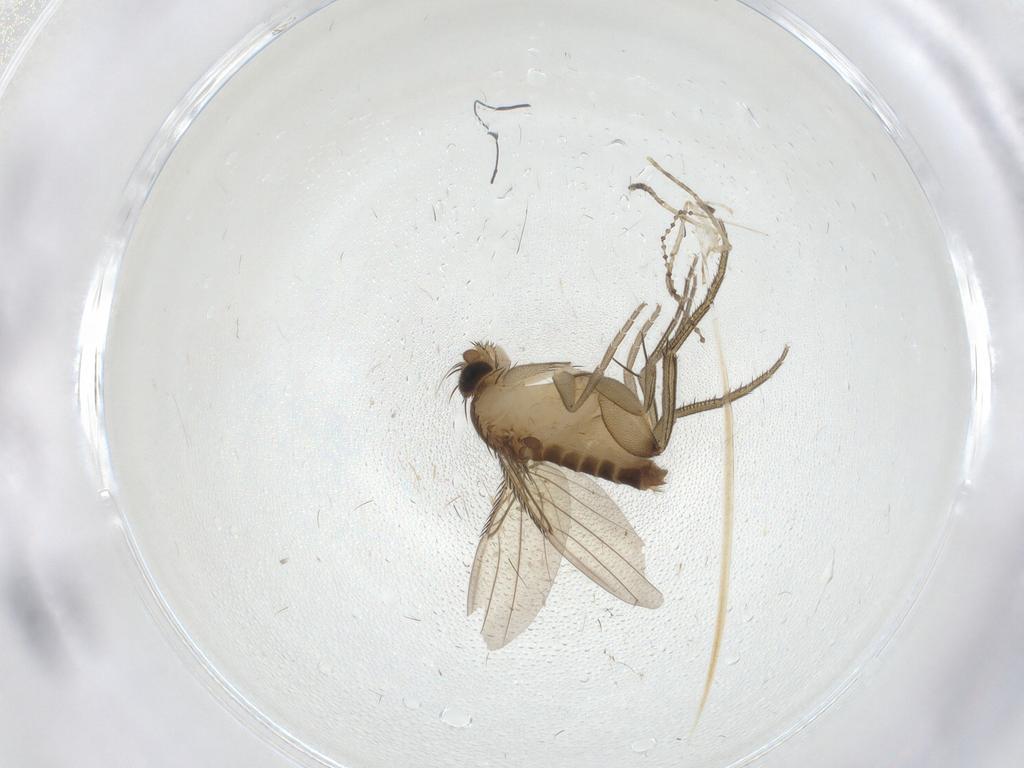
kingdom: Animalia
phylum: Arthropoda
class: Insecta
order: Diptera
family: Phoridae
